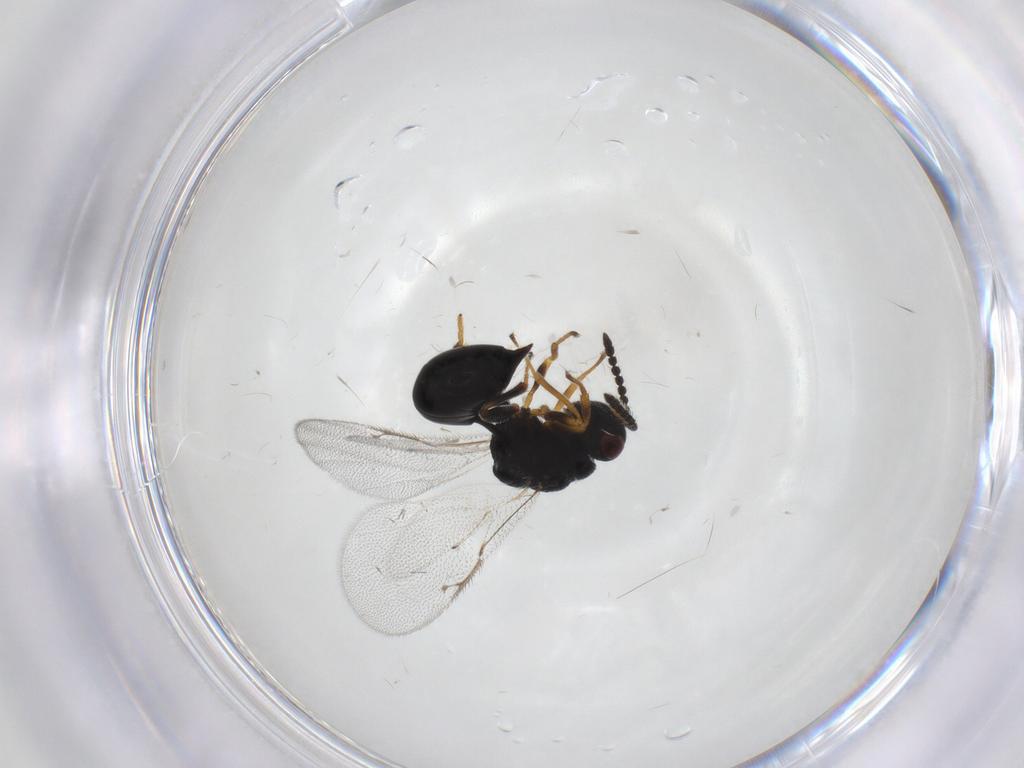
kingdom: Animalia
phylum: Arthropoda
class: Insecta
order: Hymenoptera
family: Eurytomidae
